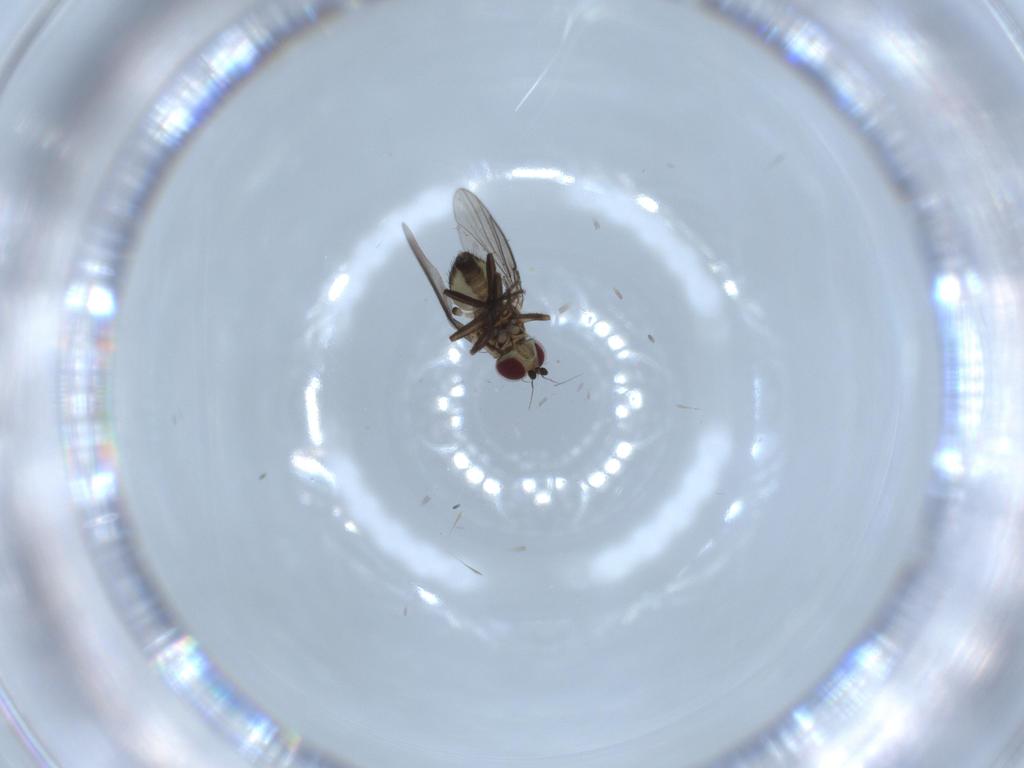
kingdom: Animalia
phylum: Arthropoda
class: Insecta
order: Diptera
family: Agromyzidae
